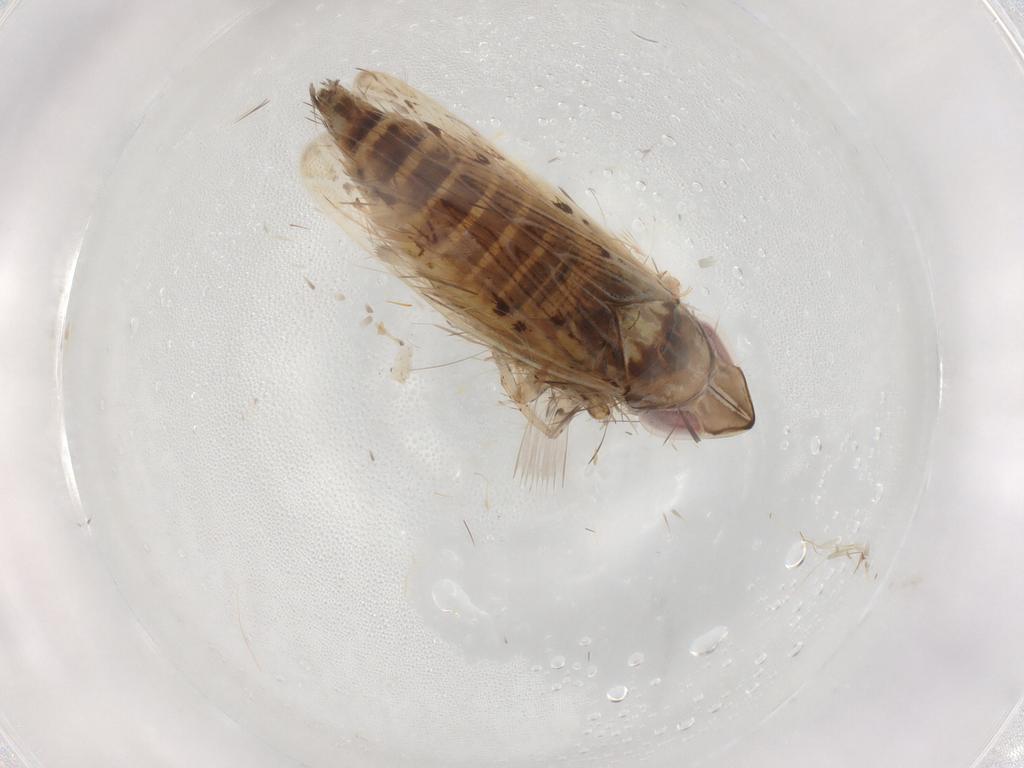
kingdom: Animalia
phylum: Arthropoda
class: Insecta
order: Hemiptera
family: Cicadellidae
